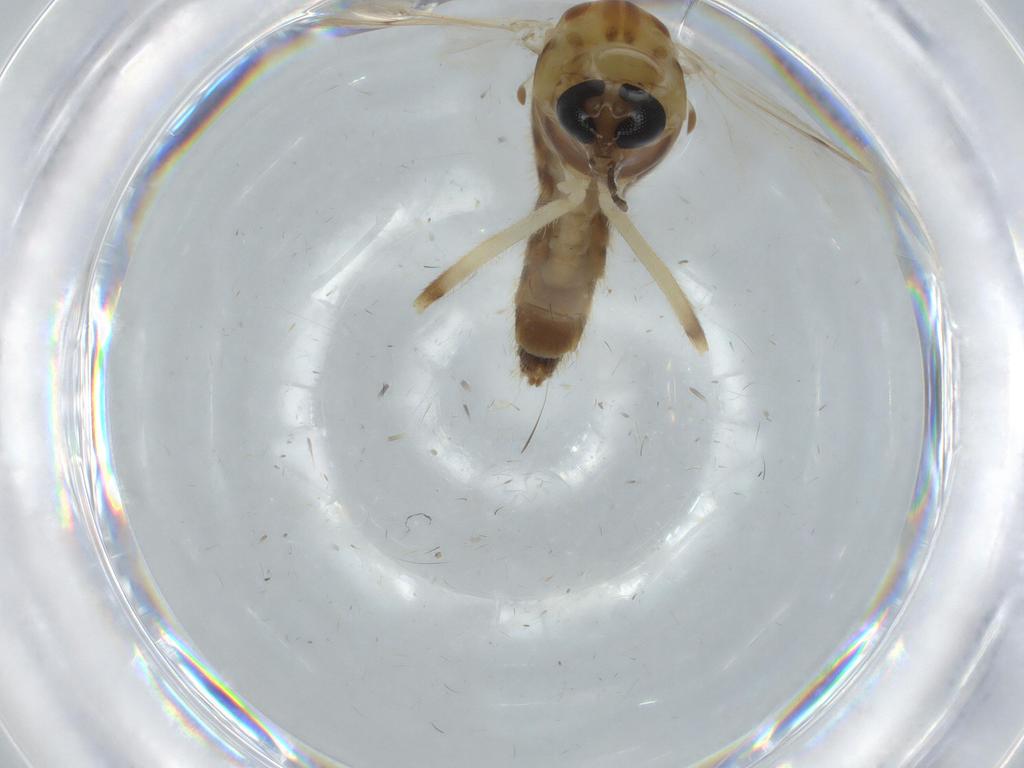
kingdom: Animalia
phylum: Arthropoda
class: Insecta
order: Diptera
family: Chironomidae
